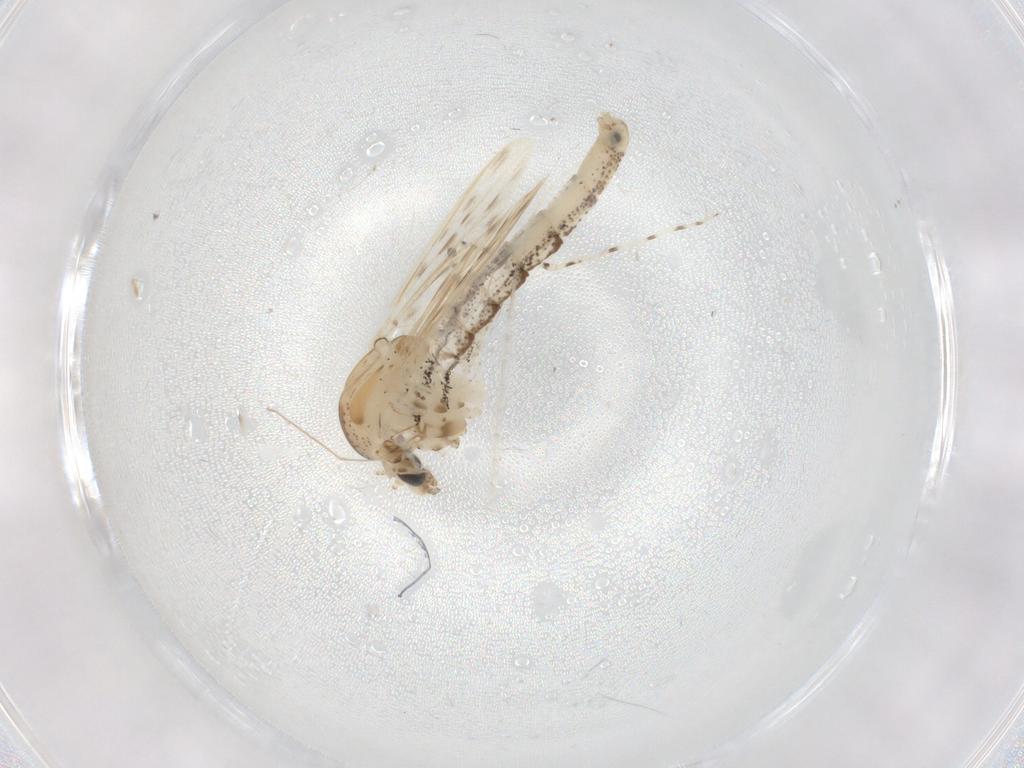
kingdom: Animalia
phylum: Arthropoda
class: Insecta
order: Diptera
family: Chaoboridae
